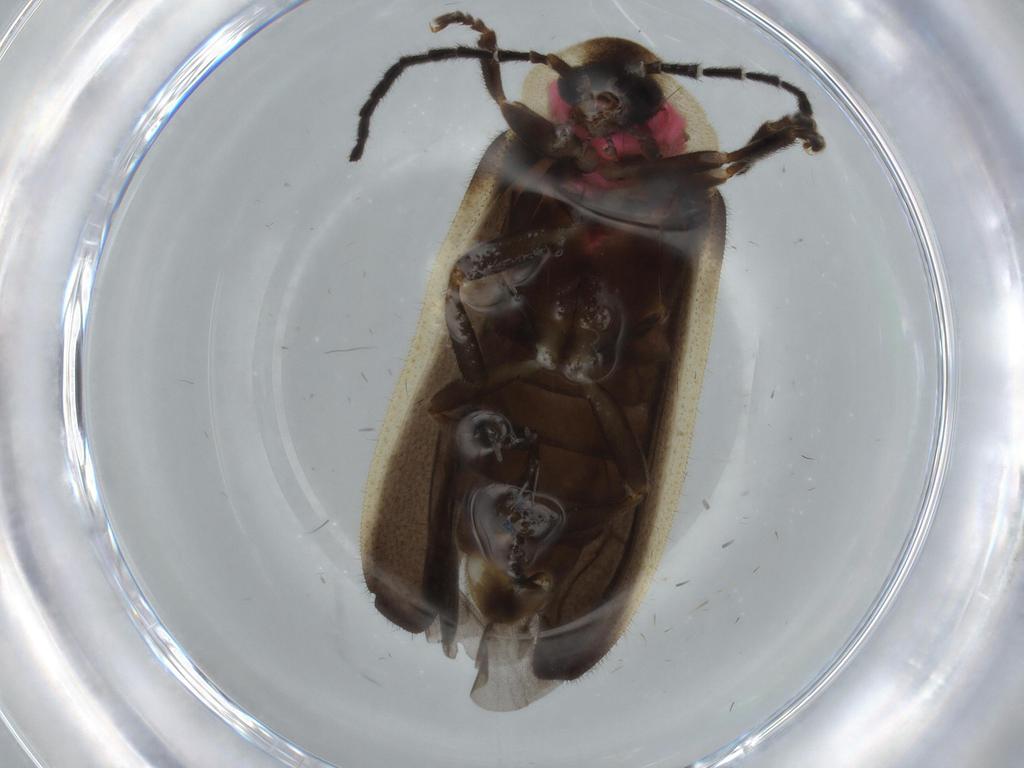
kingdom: Animalia
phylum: Arthropoda
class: Insecta
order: Coleoptera
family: Lampyridae
